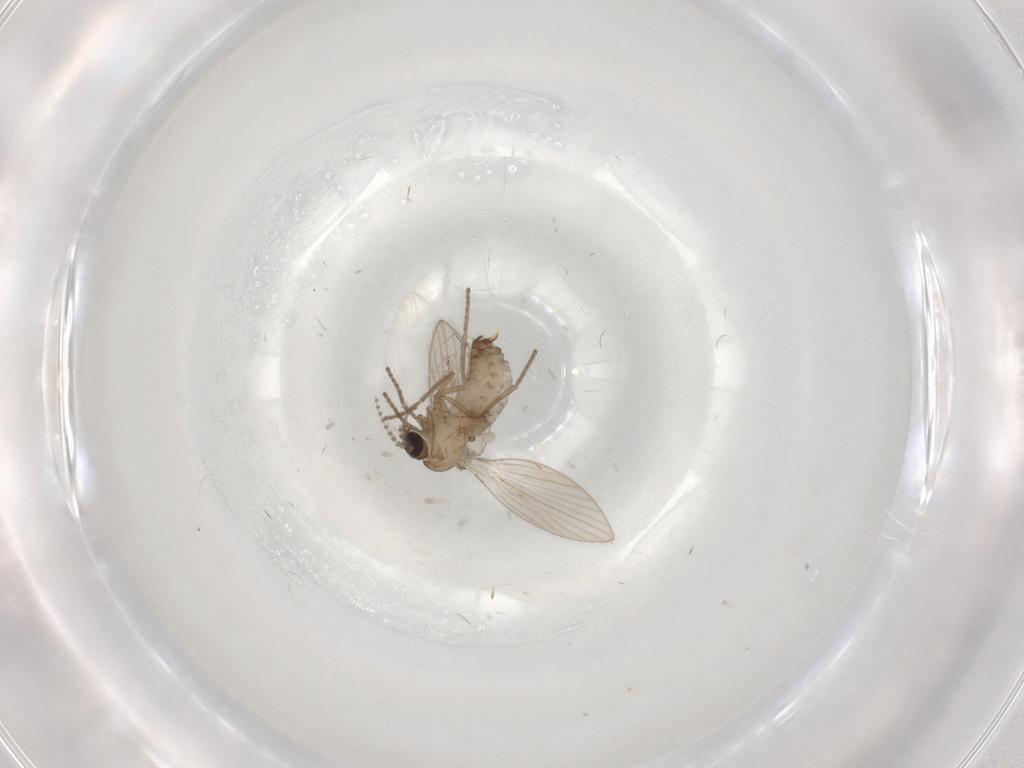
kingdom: Animalia
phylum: Arthropoda
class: Insecta
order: Diptera
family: Psychodidae
